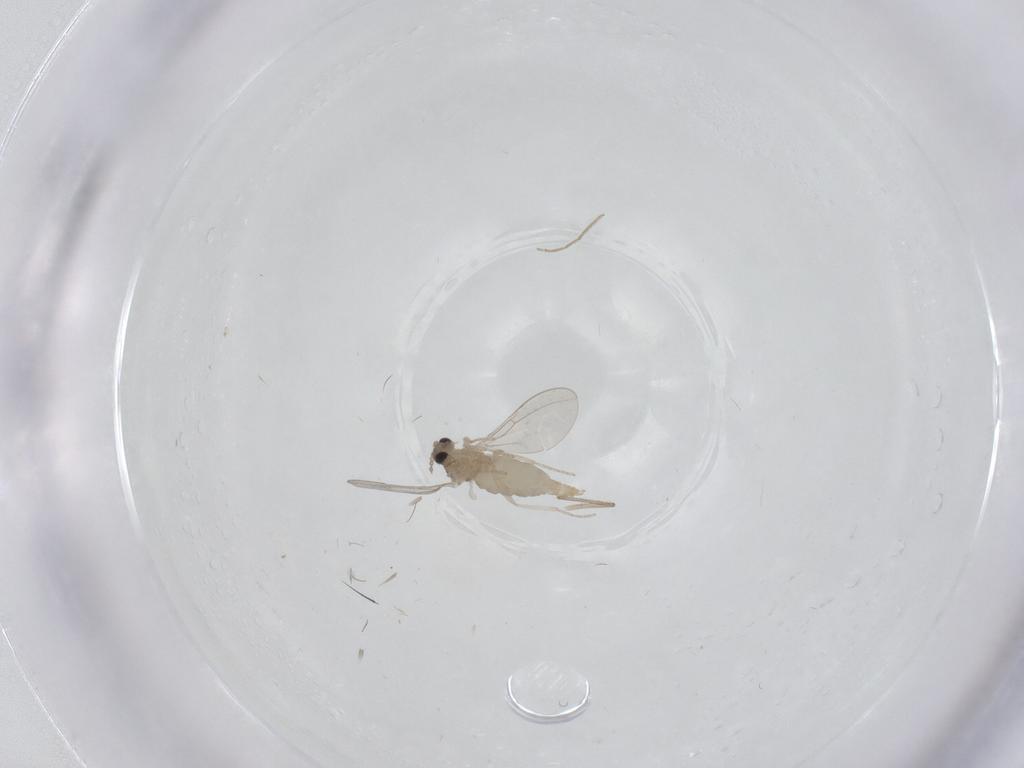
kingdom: Animalia
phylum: Arthropoda
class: Insecta
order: Diptera
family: Chironomidae
